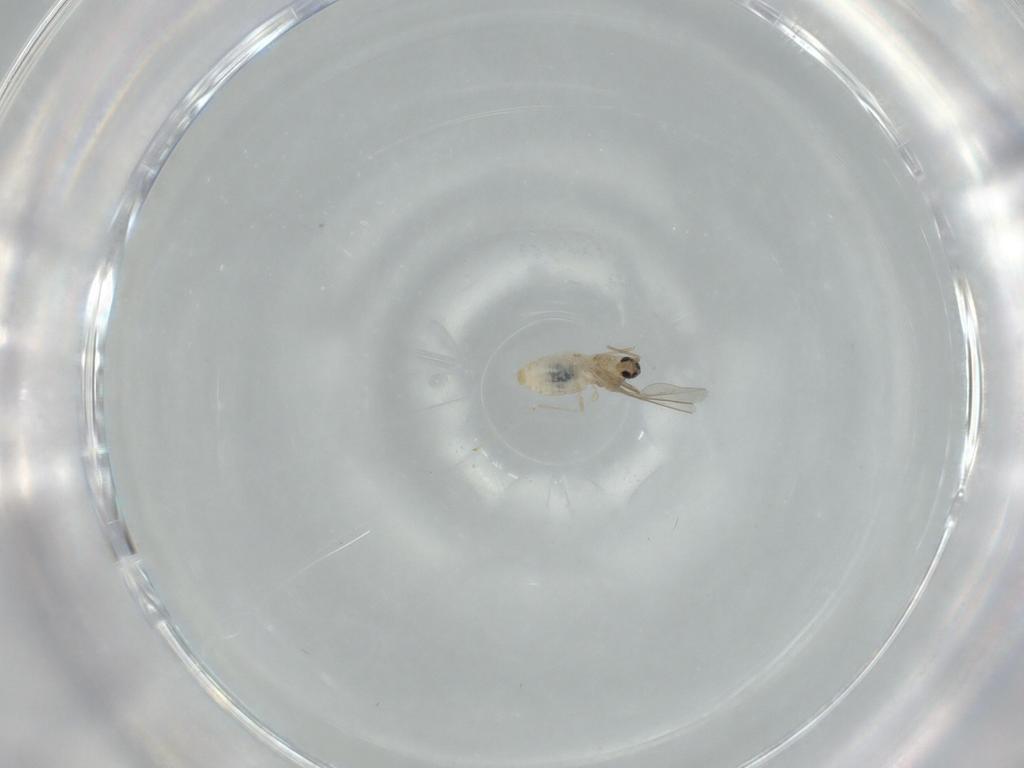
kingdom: Animalia
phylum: Arthropoda
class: Insecta
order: Diptera
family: Cecidomyiidae
